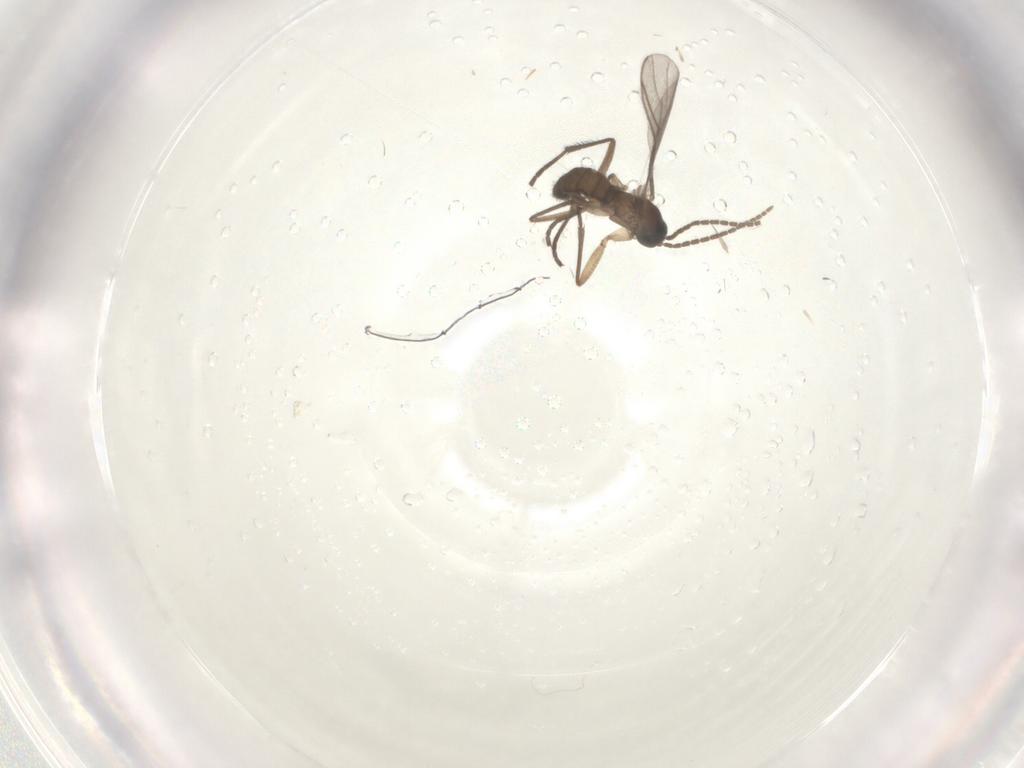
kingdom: Animalia
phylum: Arthropoda
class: Insecta
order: Diptera
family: Sciaridae
